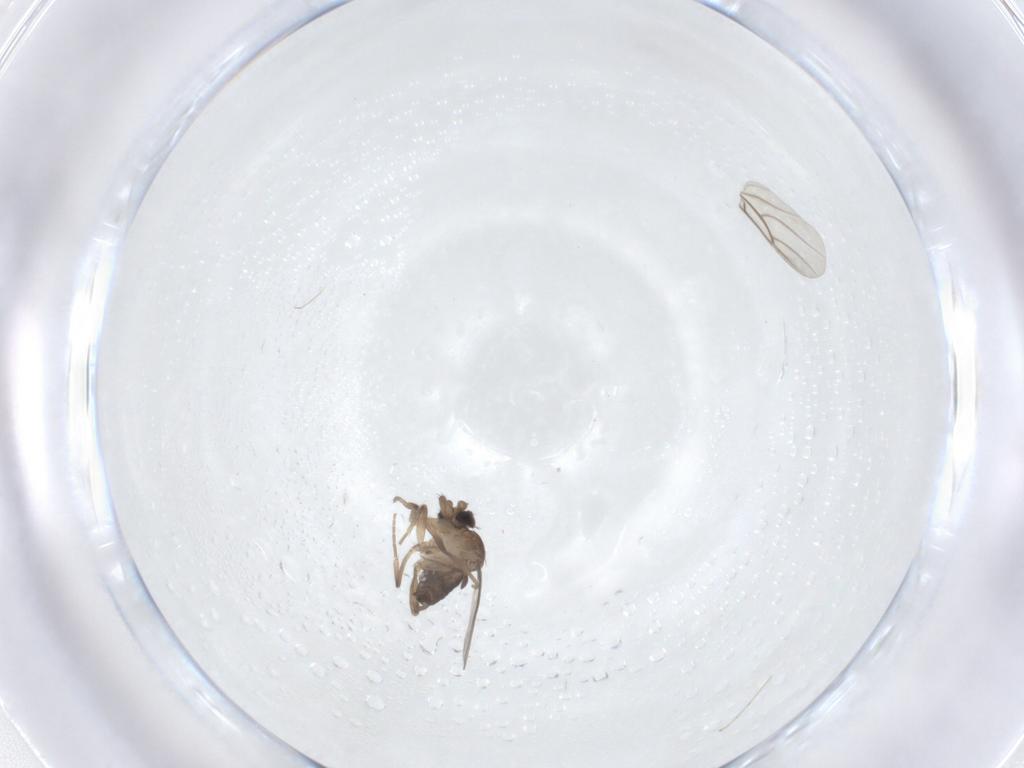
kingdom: Animalia
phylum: Arthropoda
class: Insecta
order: Diptera
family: Phoridae
